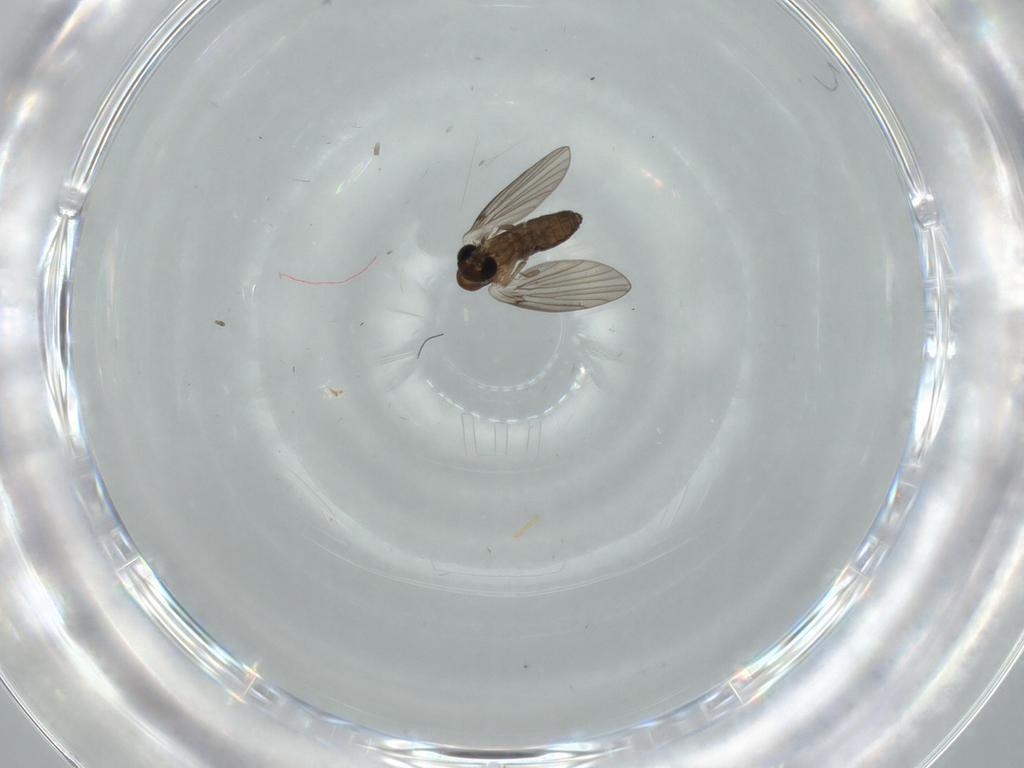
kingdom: Animalia
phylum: Arthropoda
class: Insecta
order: Diptera
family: Psychodidae
